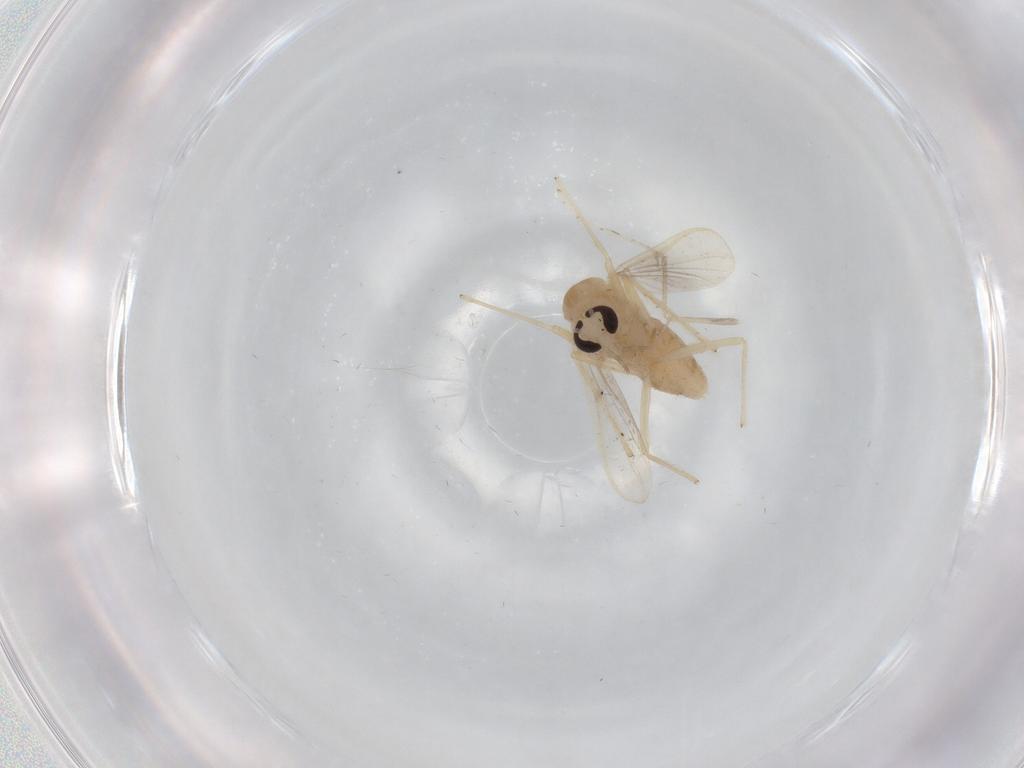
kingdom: Animalia
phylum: Arthropoda
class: Insecta
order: Diptera
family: Chironomidae
